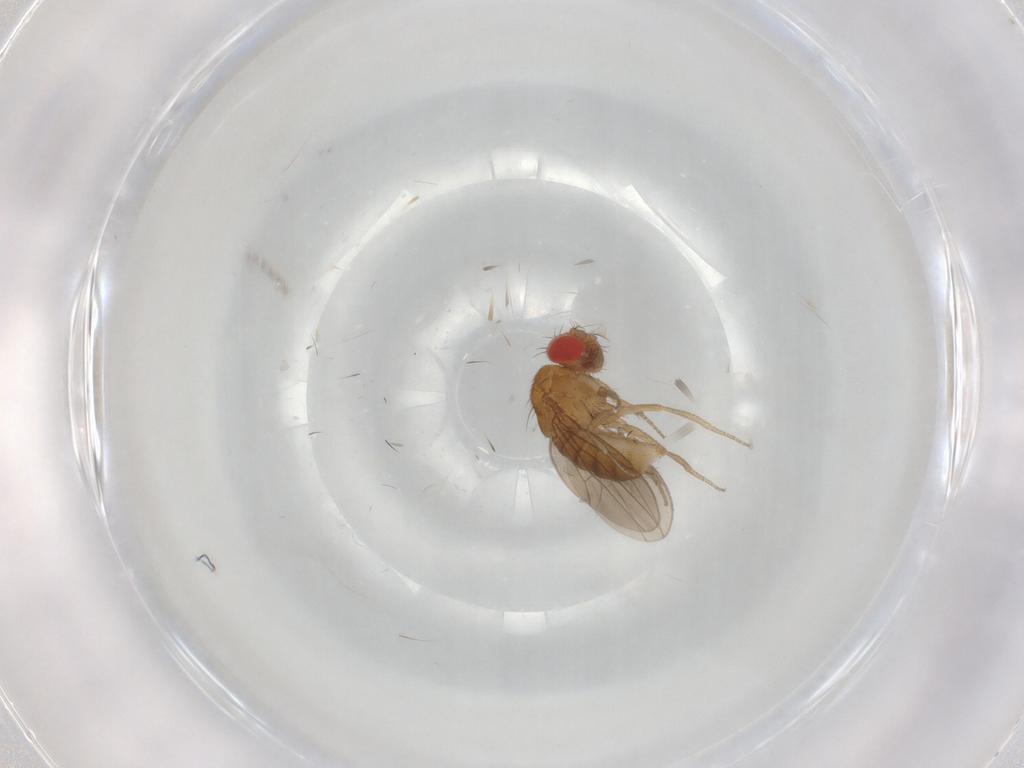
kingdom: Animalia
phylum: Arthropoda
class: Insecta
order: Diptera
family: Drosophilidae
